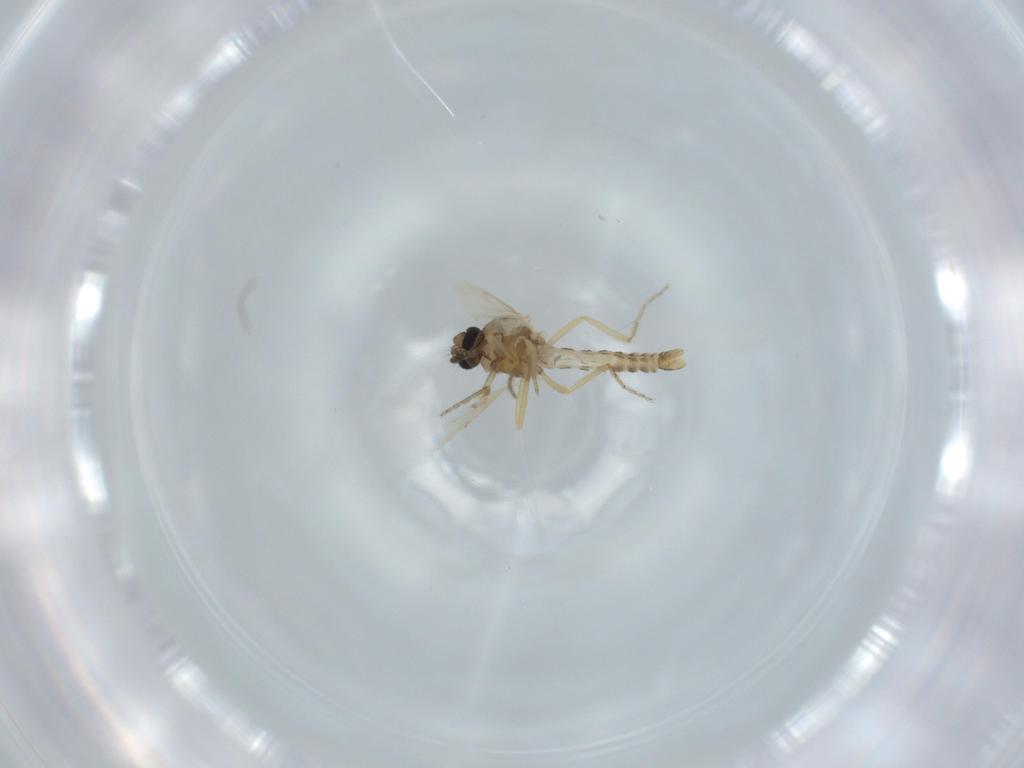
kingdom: Animalia
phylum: Arthropoda
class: Insecta
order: Diptera
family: Ceratopogonidae
